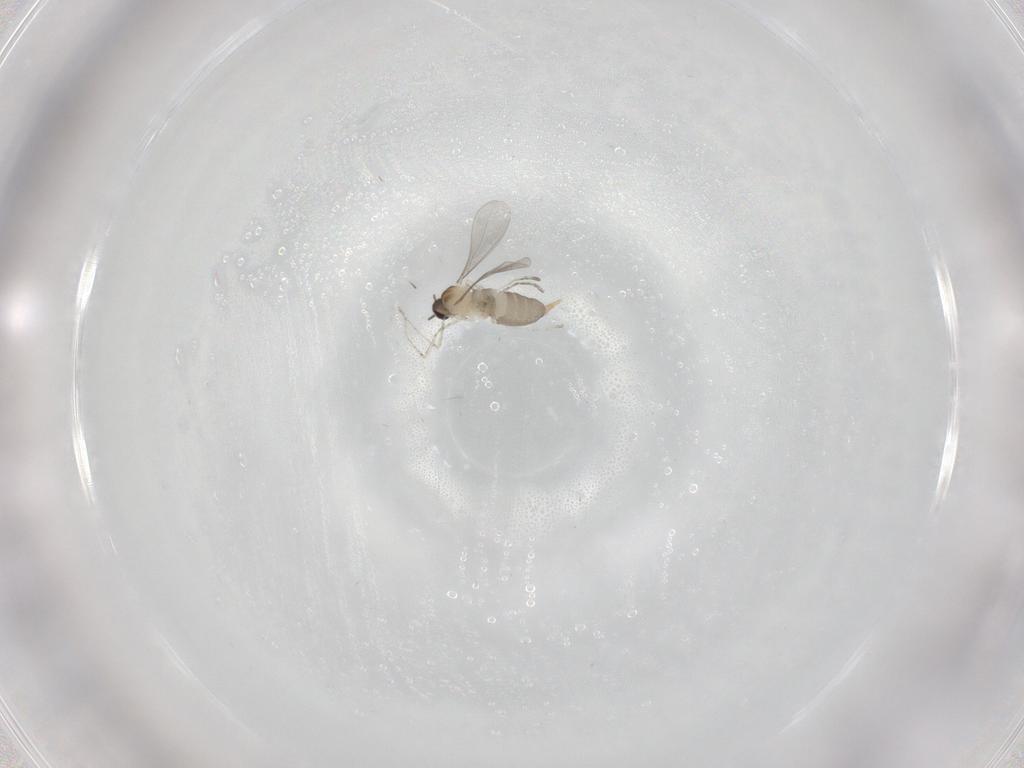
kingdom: Animalia
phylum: Arthropoda
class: Insecta
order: Diptera
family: Cecidomyiidae
